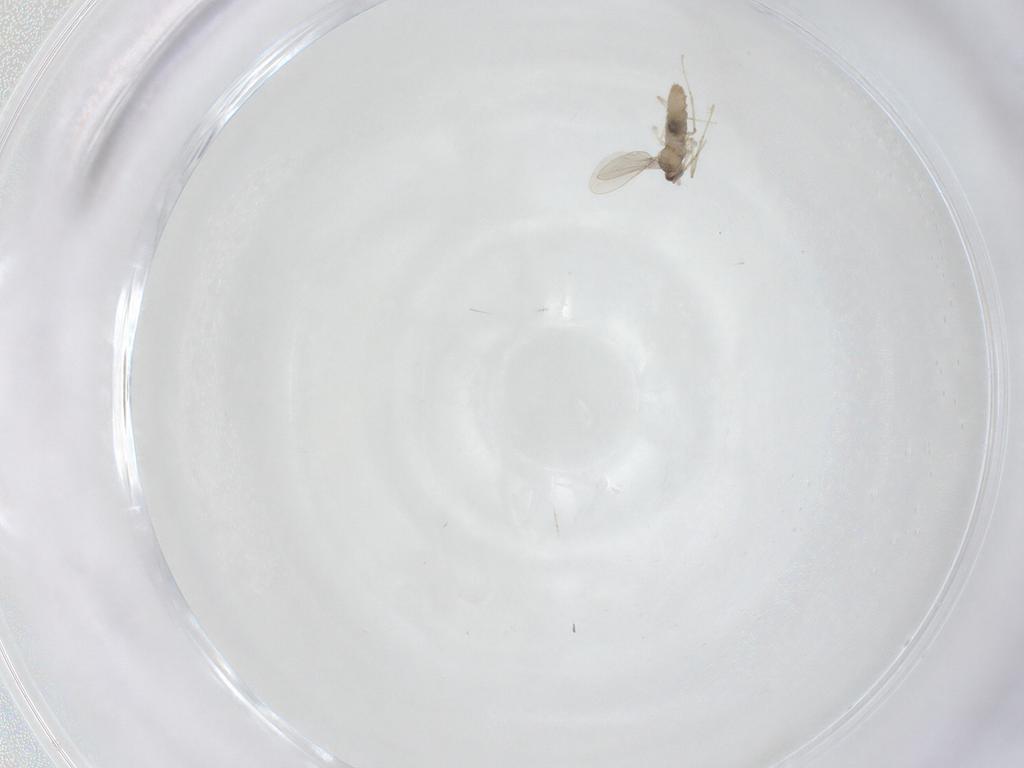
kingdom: Animalia
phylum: Arthropoda
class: Insecta
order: Diptera
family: Cecidomyiidae
